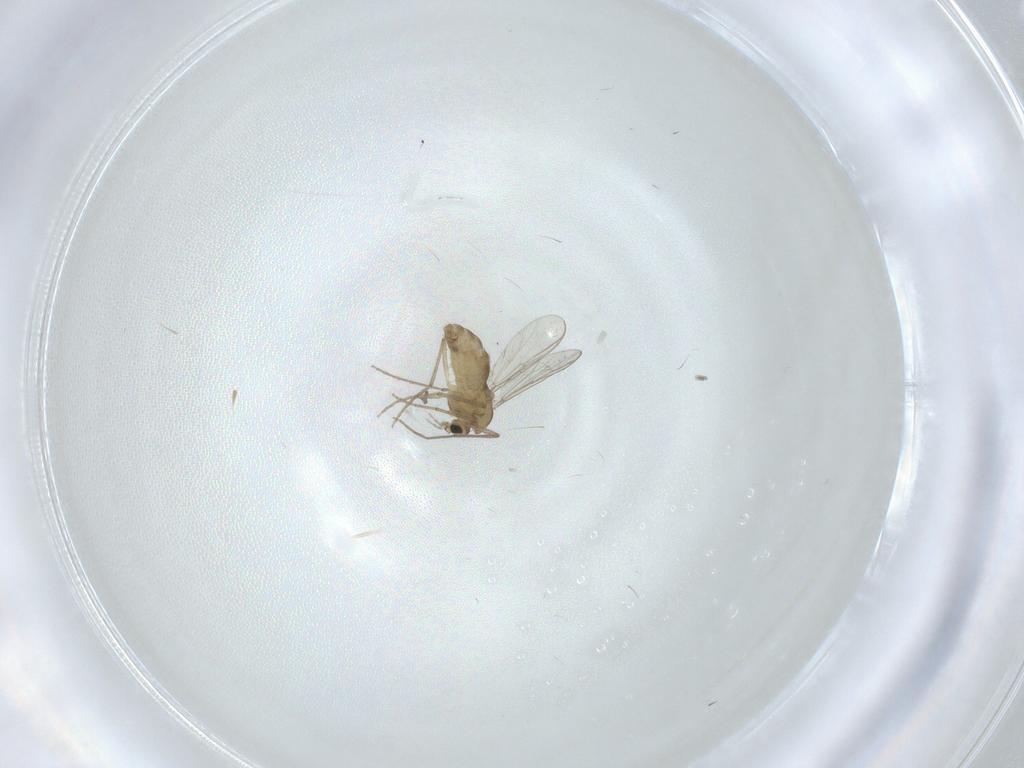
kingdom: Animalia
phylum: Arthropoda
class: Insecta
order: Diptera
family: Chironomidae
